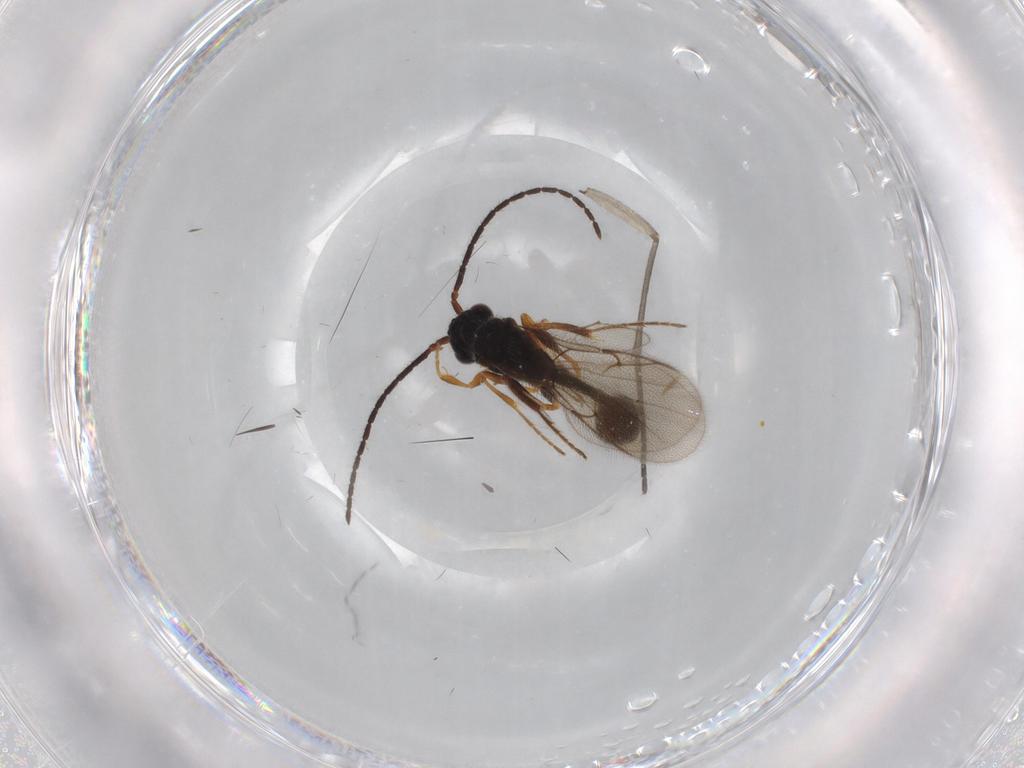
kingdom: Animalia
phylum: Arthropoda
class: Insecta
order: Hymenoptera
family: Diapriidae
